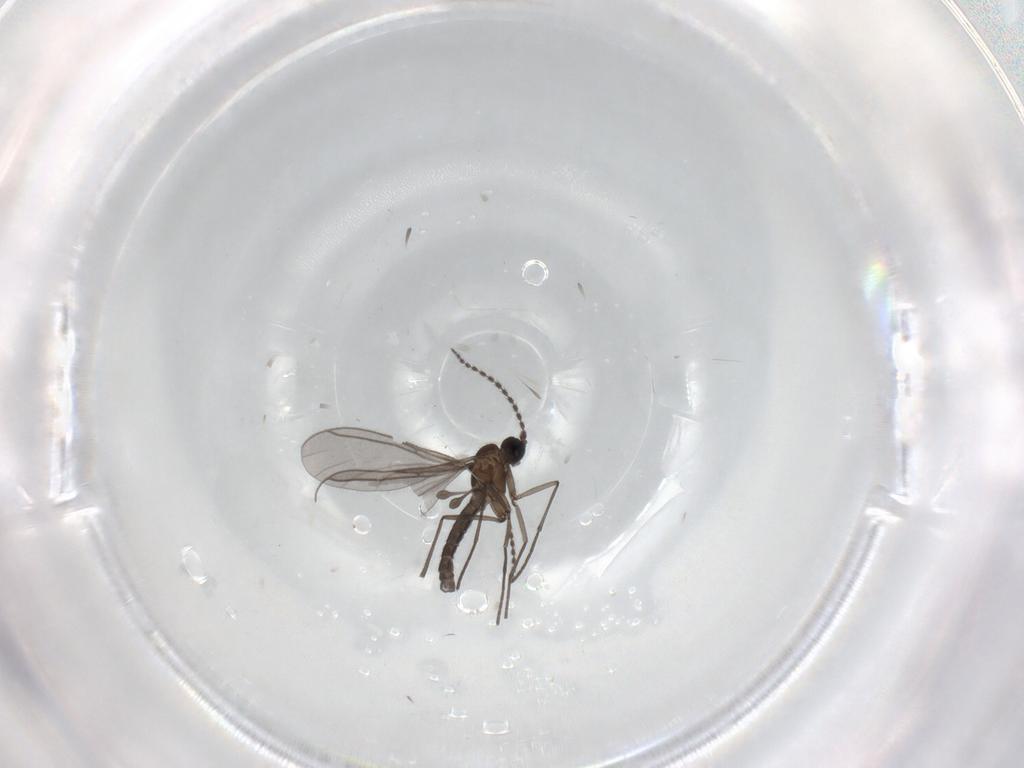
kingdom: Animalia
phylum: Arthropoda
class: Insecta
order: Diptera
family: Sciaridae
